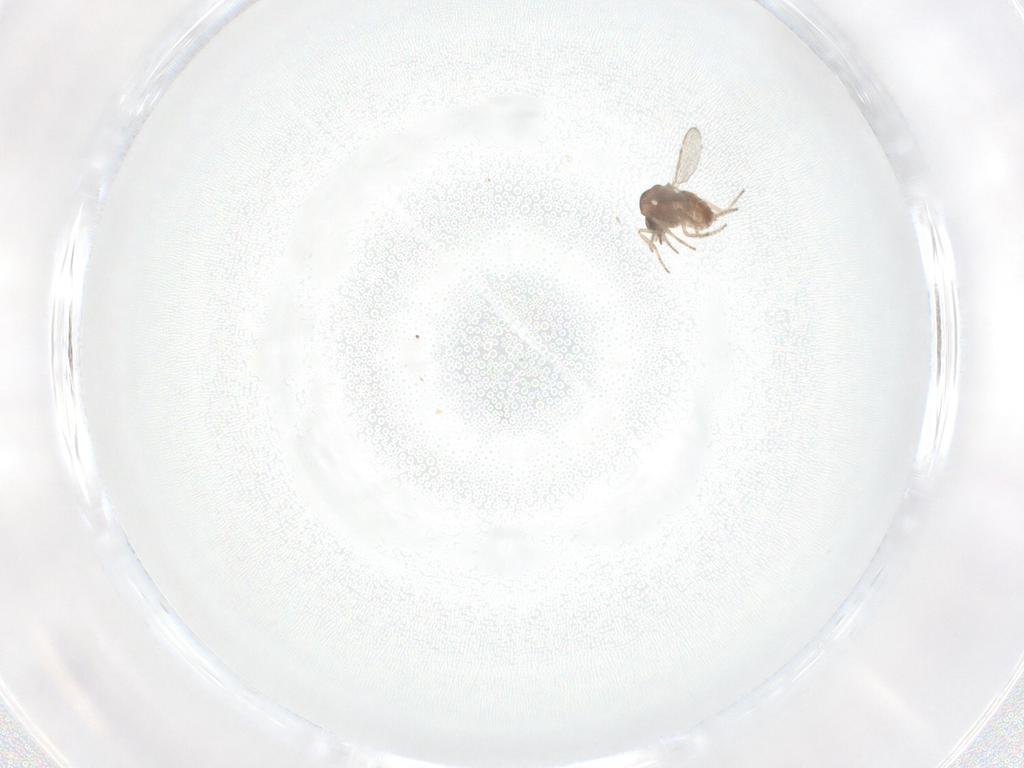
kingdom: Animalia
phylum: Arthropoda
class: Insecta
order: Diptera
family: Ceratopogonidae
